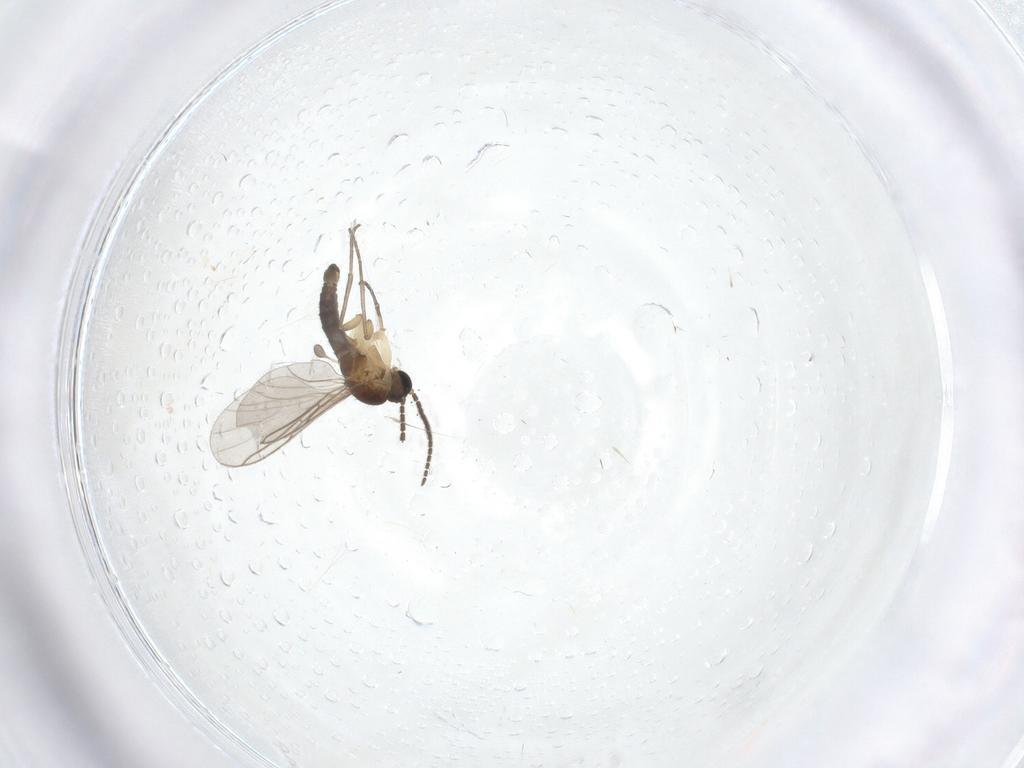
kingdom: Animalia
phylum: Arthropoda
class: Insecta
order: Diptera
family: Sciaridae
